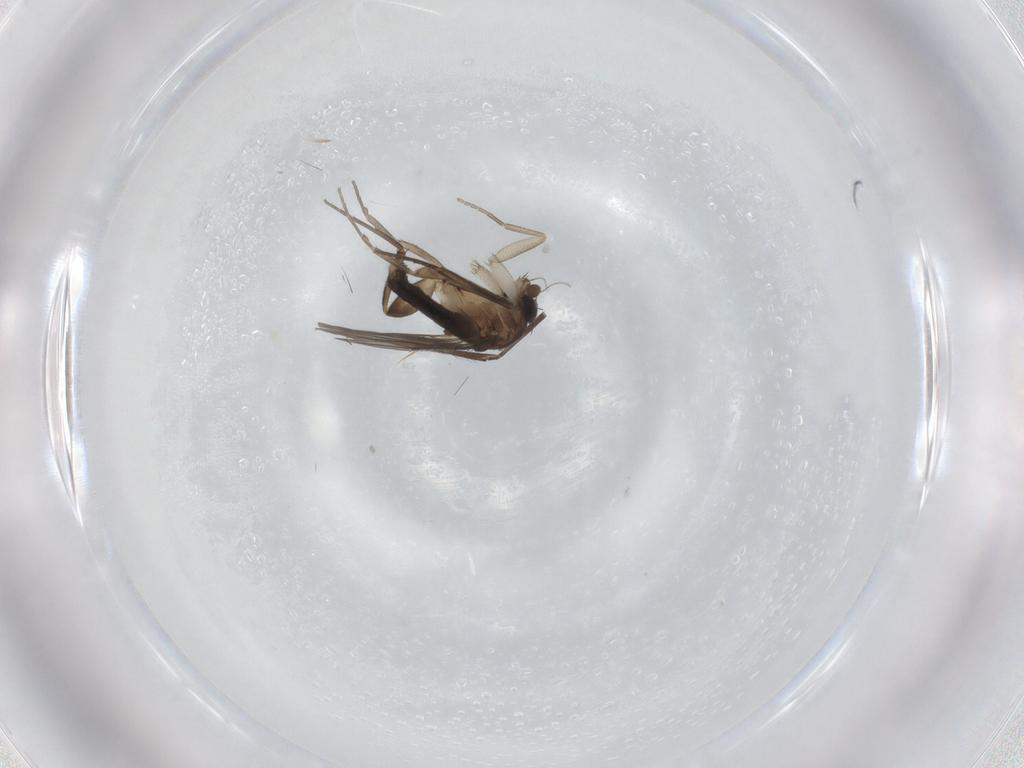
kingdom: Animalia
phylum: Arthropoda
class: Insecta
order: Diptera
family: Phoridae
